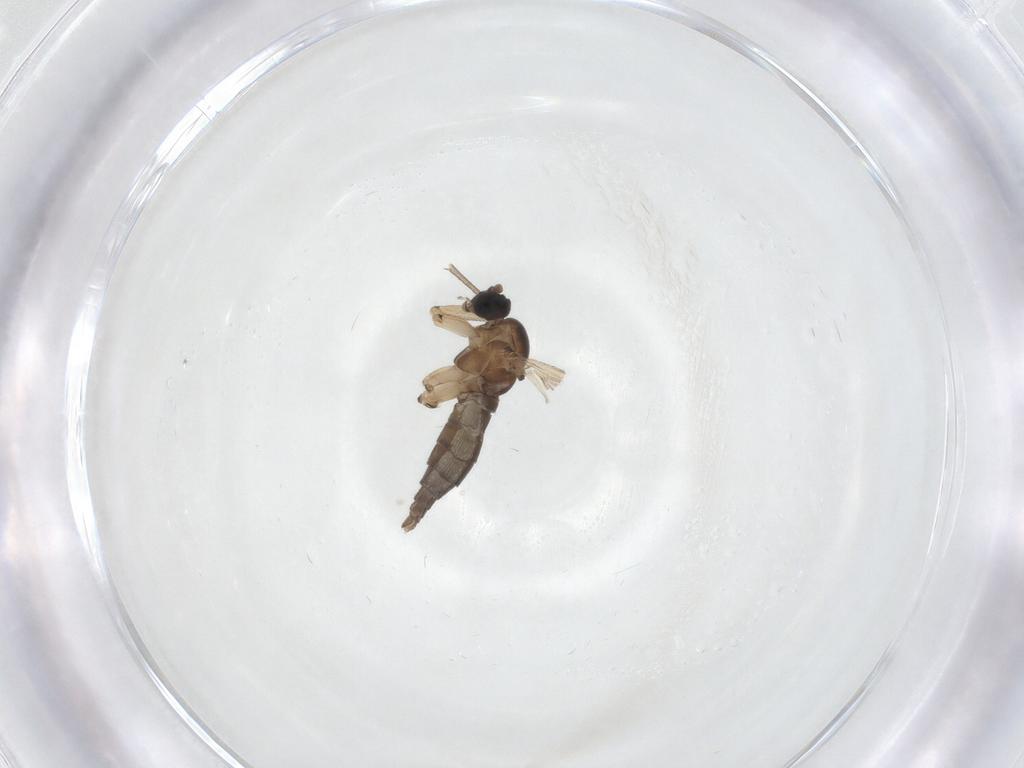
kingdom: Animalia
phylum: Arthropoda
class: Insecta
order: Diptera
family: Sciaridae
